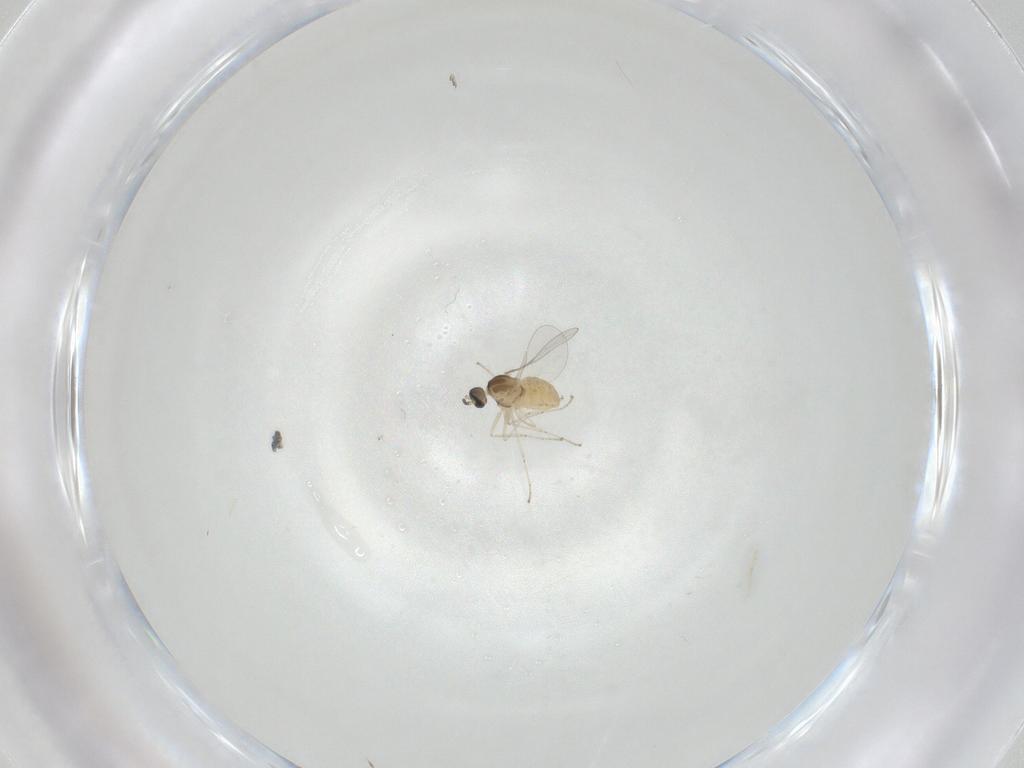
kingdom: Animalia
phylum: Arthropoda
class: Insecta
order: Diptera
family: Cecidomyiidae
